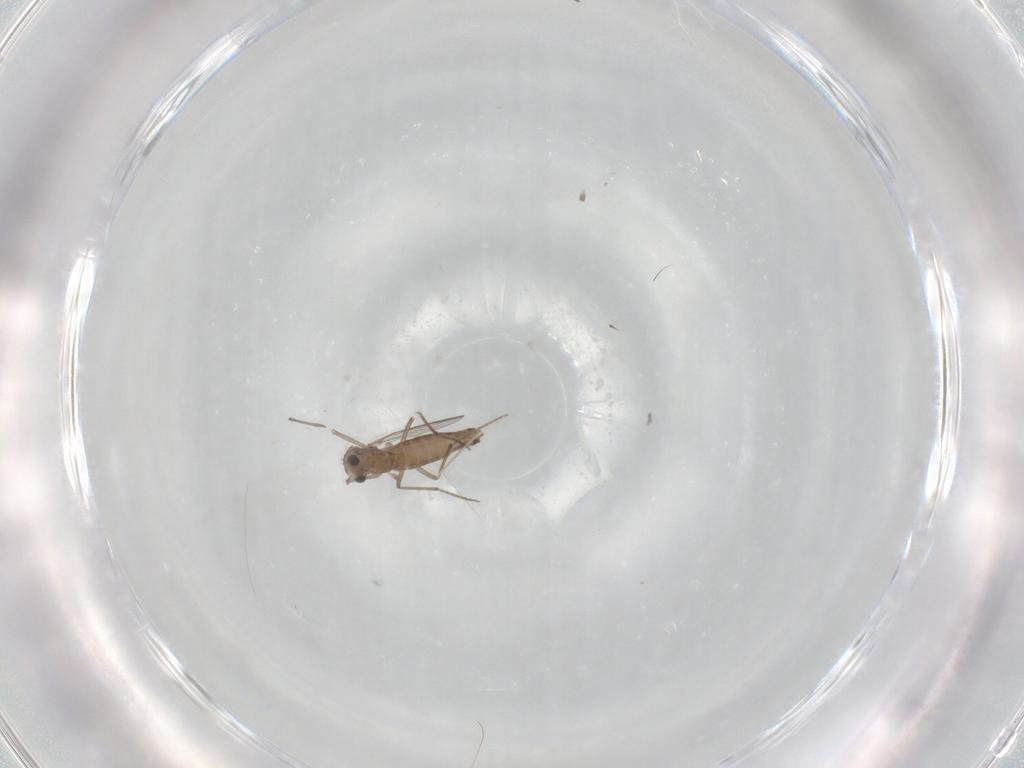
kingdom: Animalia
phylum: Arthropoda
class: Insecta
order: Diptera
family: Chironomidae
